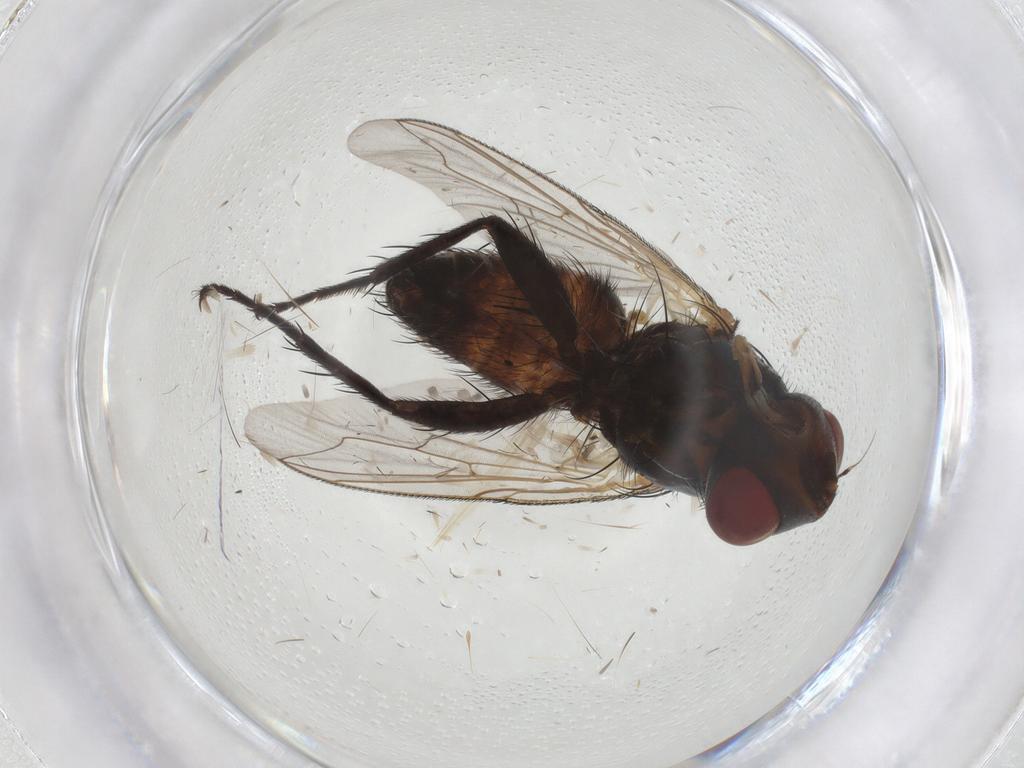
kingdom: Animalia
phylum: Arthropoda
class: Insecta
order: Diptera
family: Sarcophagidae
